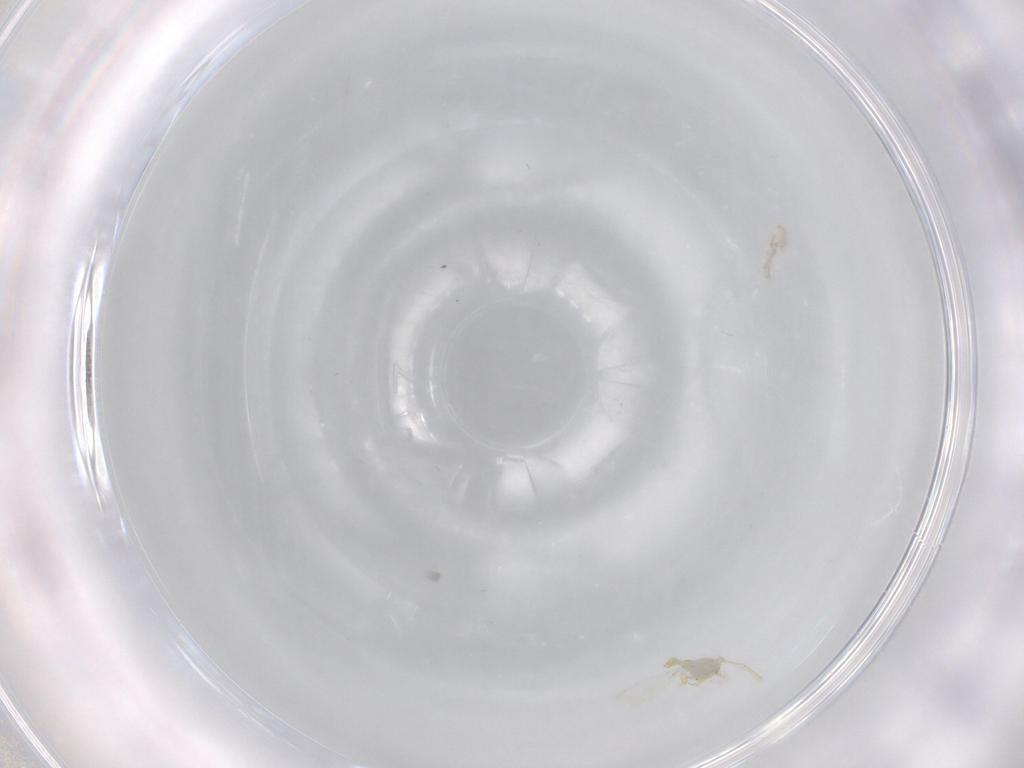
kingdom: Animalia
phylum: Arthropoda
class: Insecta
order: Hemiptera
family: Aleyrodidae
